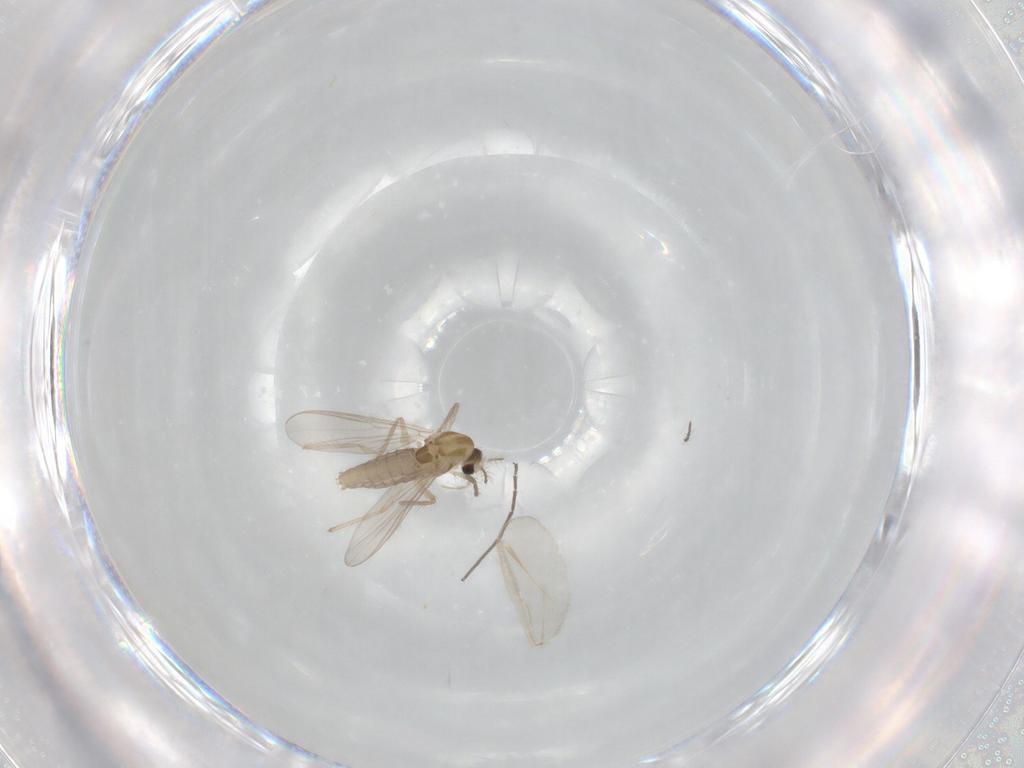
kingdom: Animalia
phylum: Arthropoda
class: Insecta
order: Diptera
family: Chironomidae
